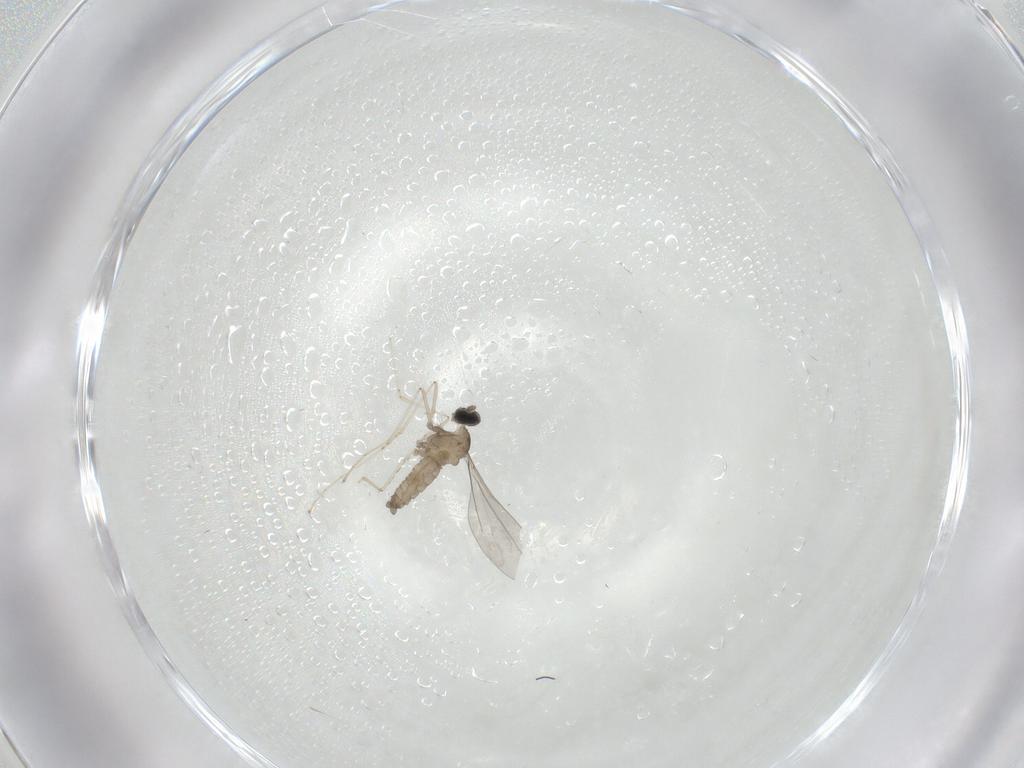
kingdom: Animalia
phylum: Arthropoda
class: Insecta
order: Diptera
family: Cecidomyiidae
